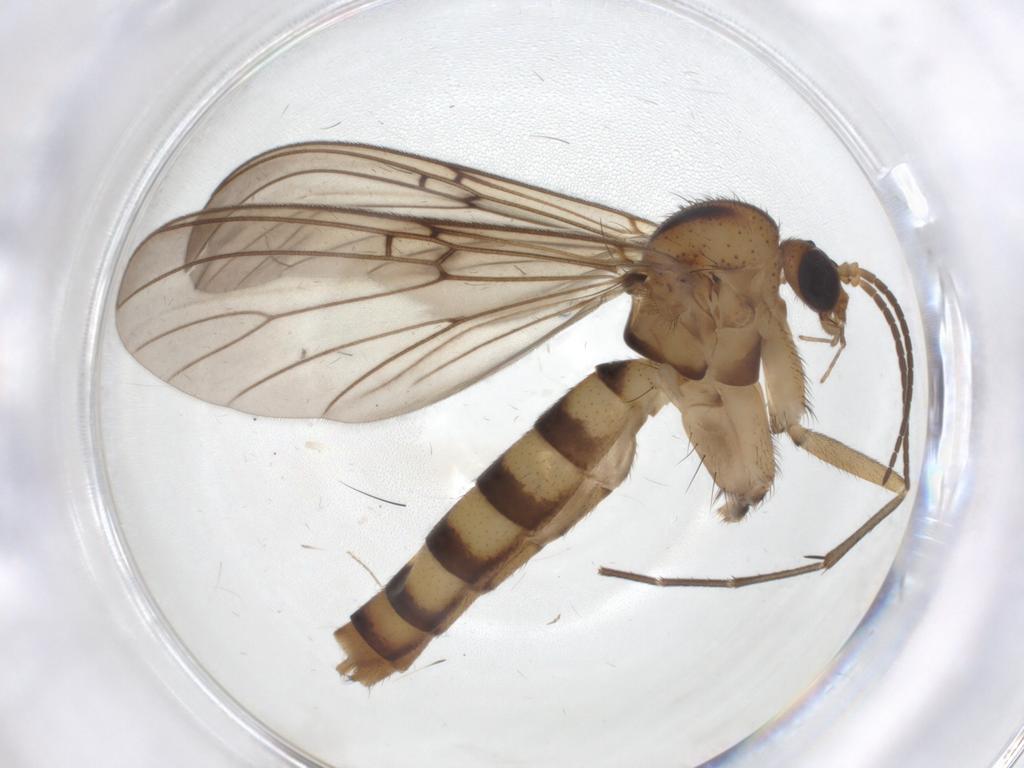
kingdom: Animalia
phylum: Arthropoda
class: Insecta
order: Diptera
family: Mycetophilidae
